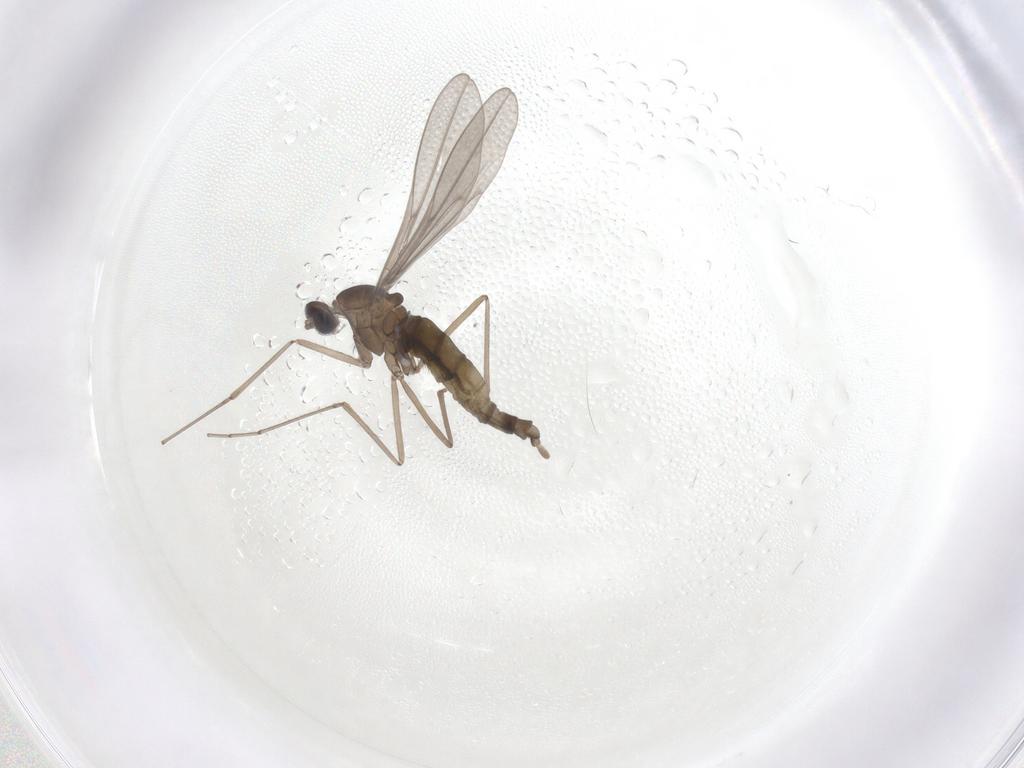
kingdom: Animalia
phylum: Arthropoda
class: Insecta
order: Diptera
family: Cecidomyiidae
